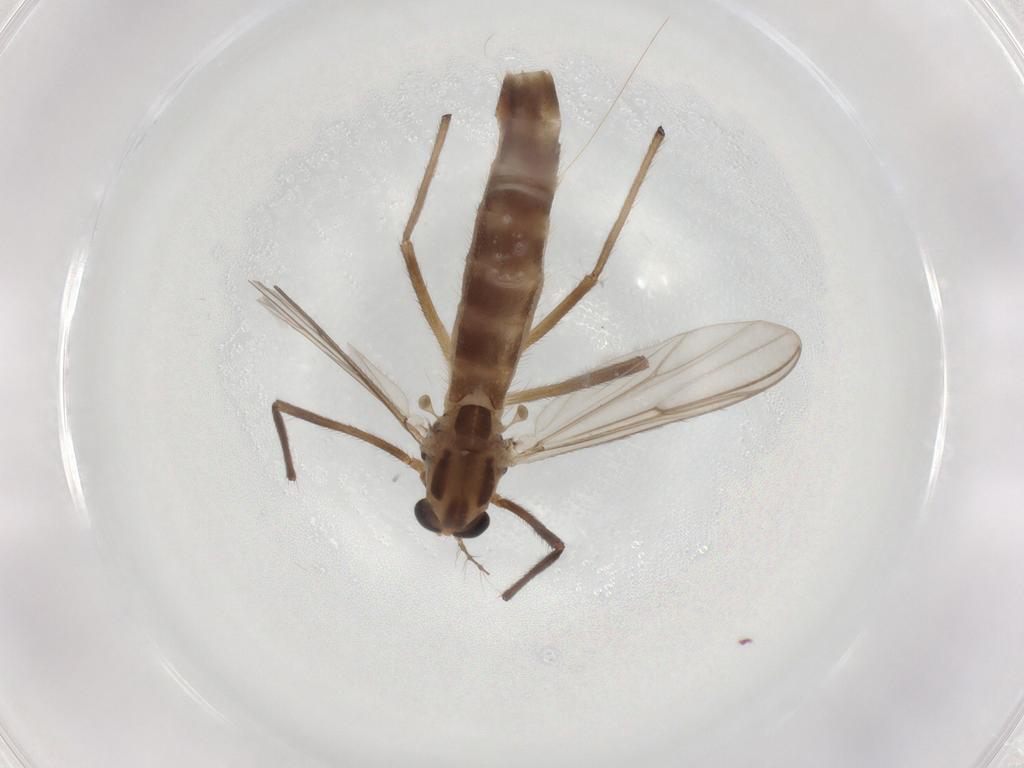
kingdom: Animalia
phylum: Arthropoda
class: Insecta
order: Diptera
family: Chironomidae
